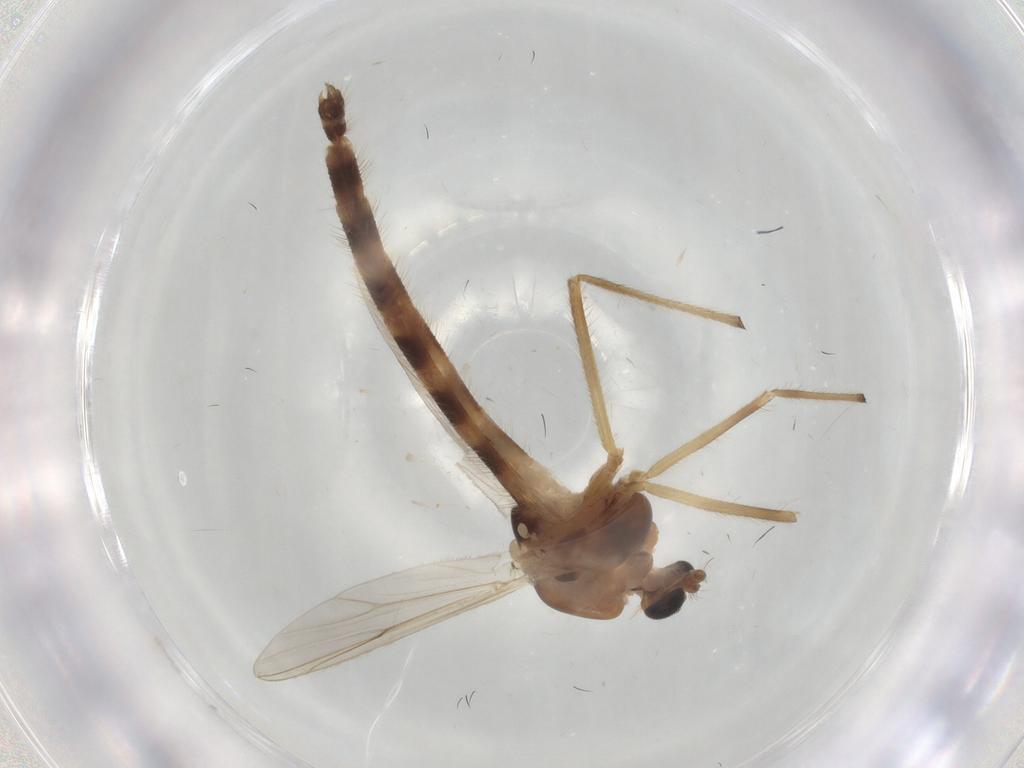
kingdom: Animalia
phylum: Arthropoda
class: Insecta
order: Diptera
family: Chironomidae
